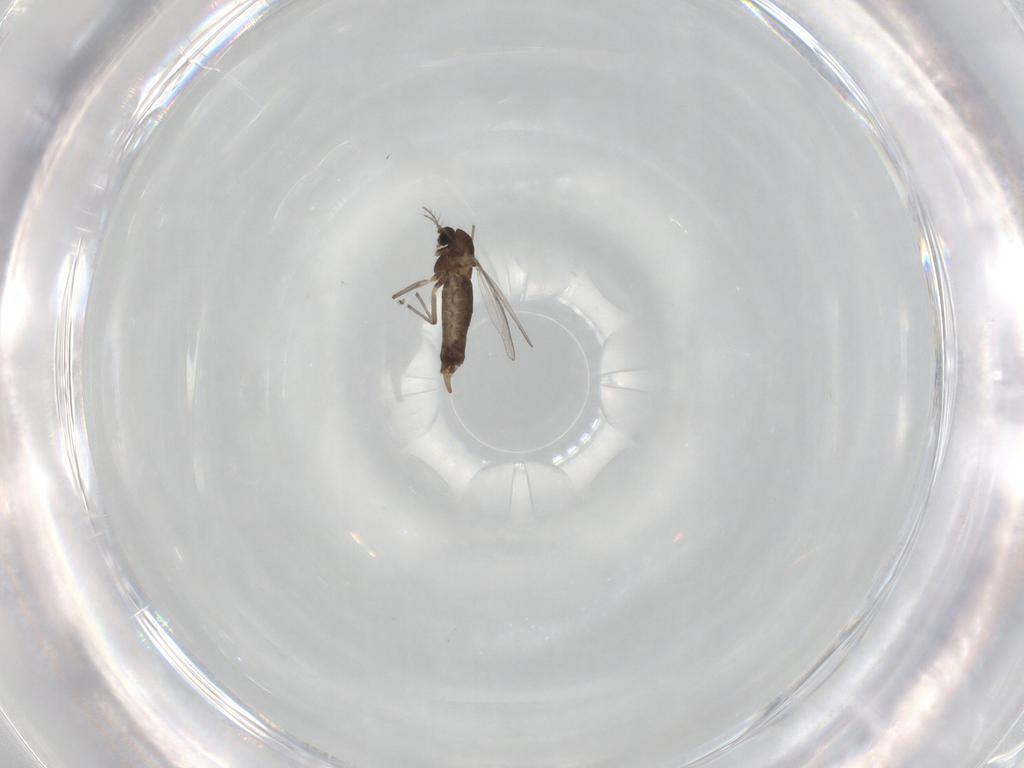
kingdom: Animalia
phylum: Arthropoda
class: Insecta
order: Diptera
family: Chironomidae
